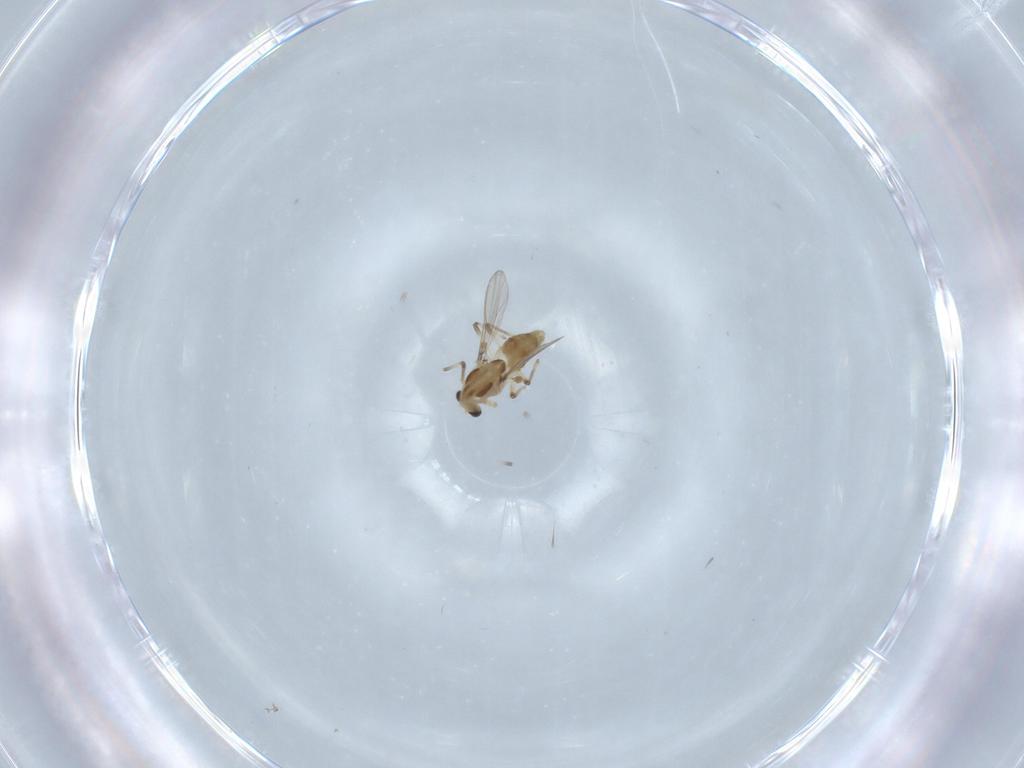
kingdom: Animalia
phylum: Arthropoda
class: Insecta
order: Diptera
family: Chironomidae
